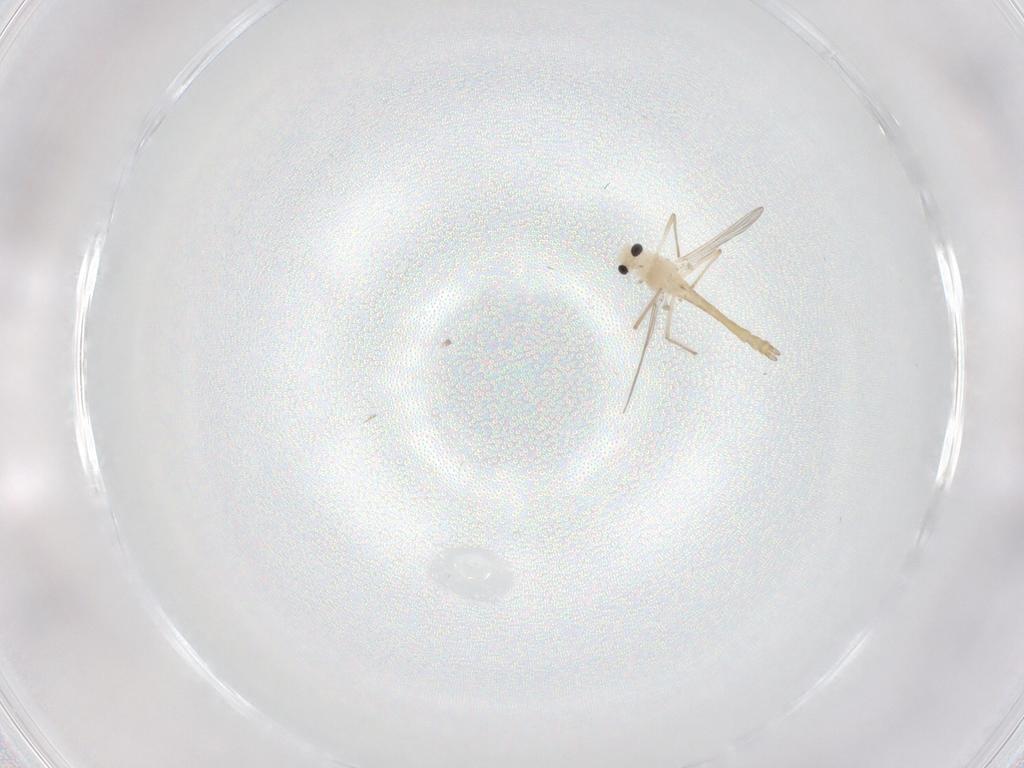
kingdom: Animalia
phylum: Arthropoda
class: Insecta
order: Diptera
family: Chironomidae
